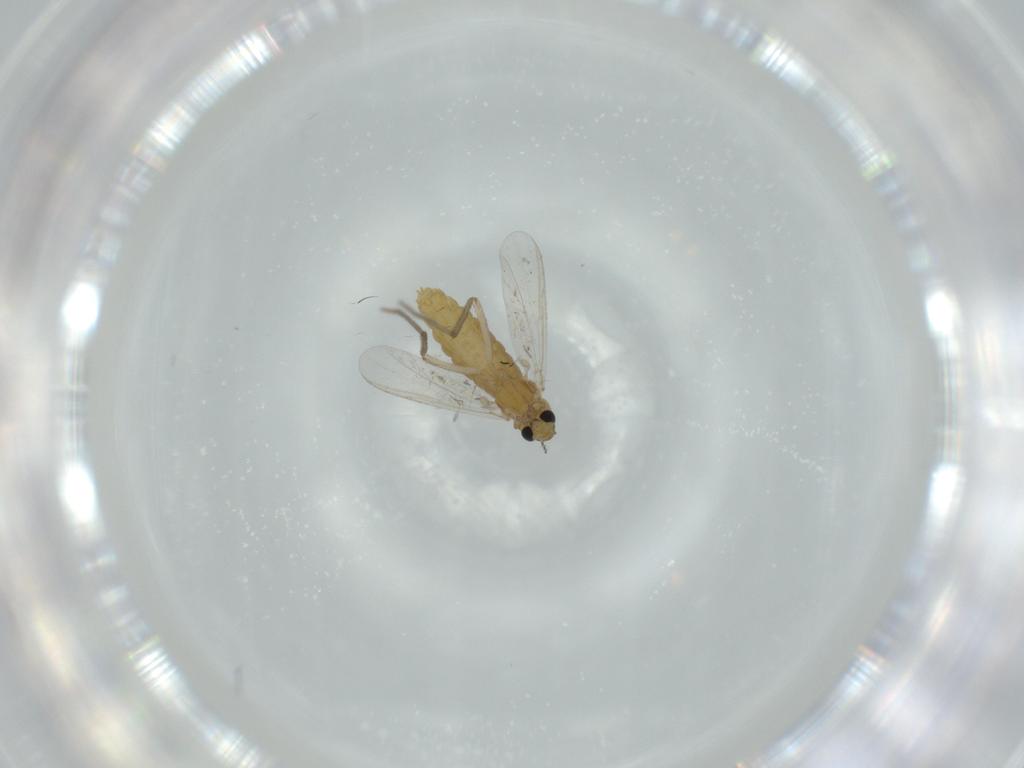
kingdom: Animalia
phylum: Arthropoda
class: Insecta
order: Diptera
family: Chironomidae
